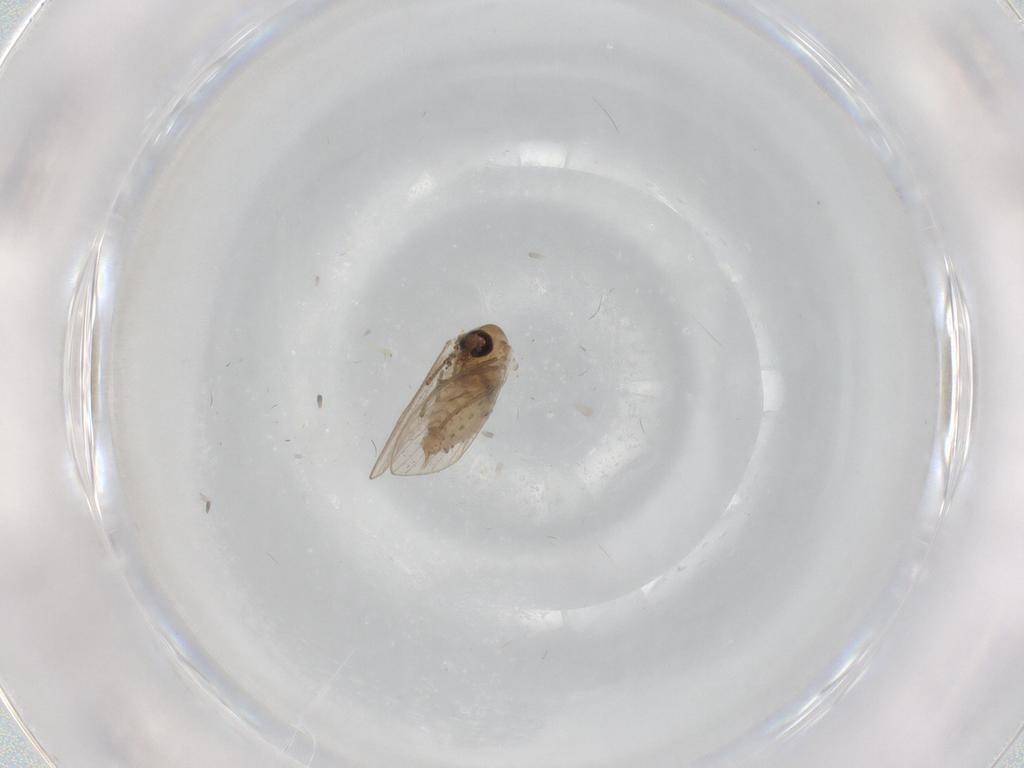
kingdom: Animalia
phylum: Arthropoda
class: Insecta
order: Diptera
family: Psychodidae
